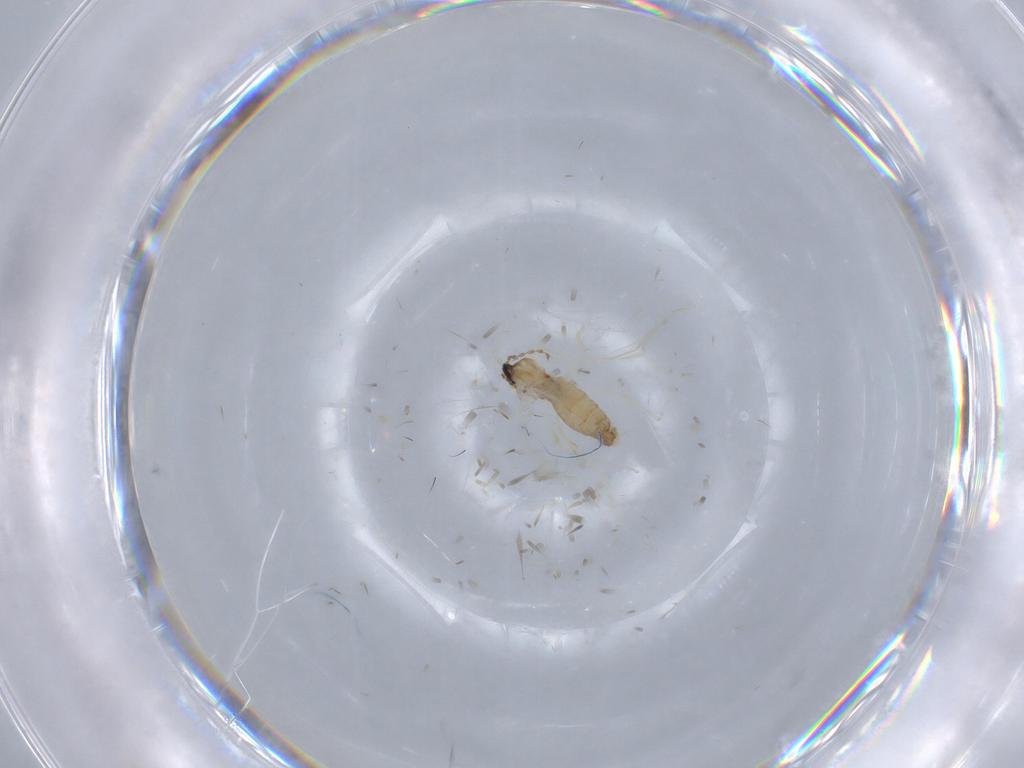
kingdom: Animalia
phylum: Arthropoda
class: Insecta
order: Diptera
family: Cecidomyiidae
